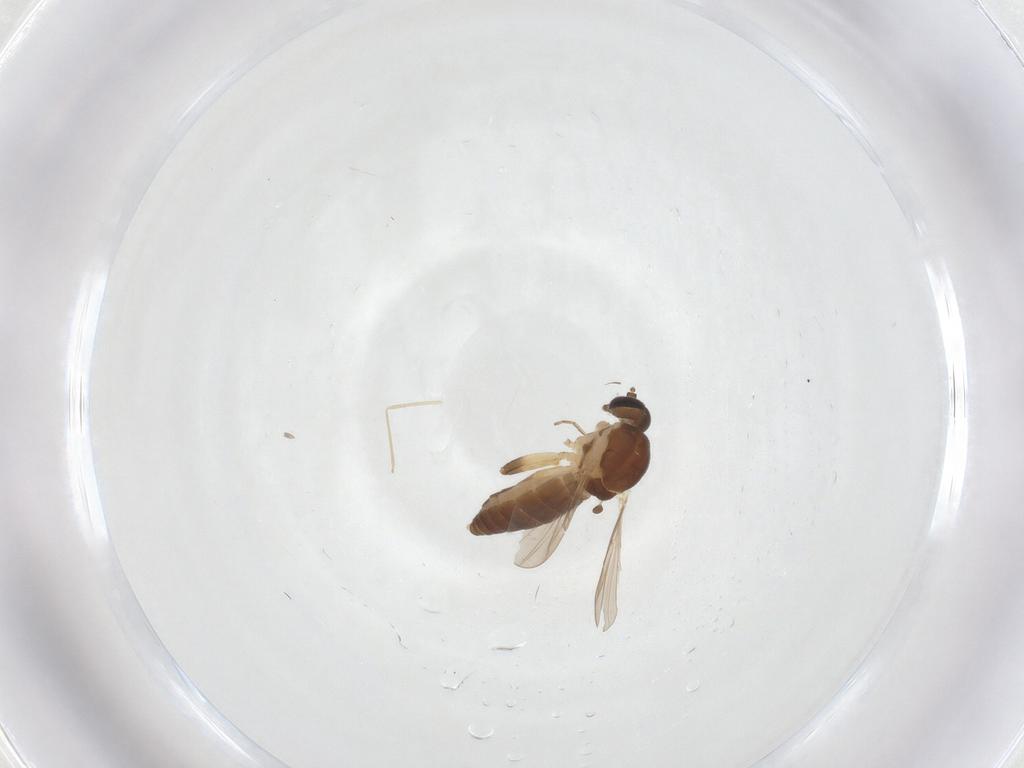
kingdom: Animalia
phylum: Arthropoda
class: Insecta
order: Diptera
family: Ceratopogonidae
